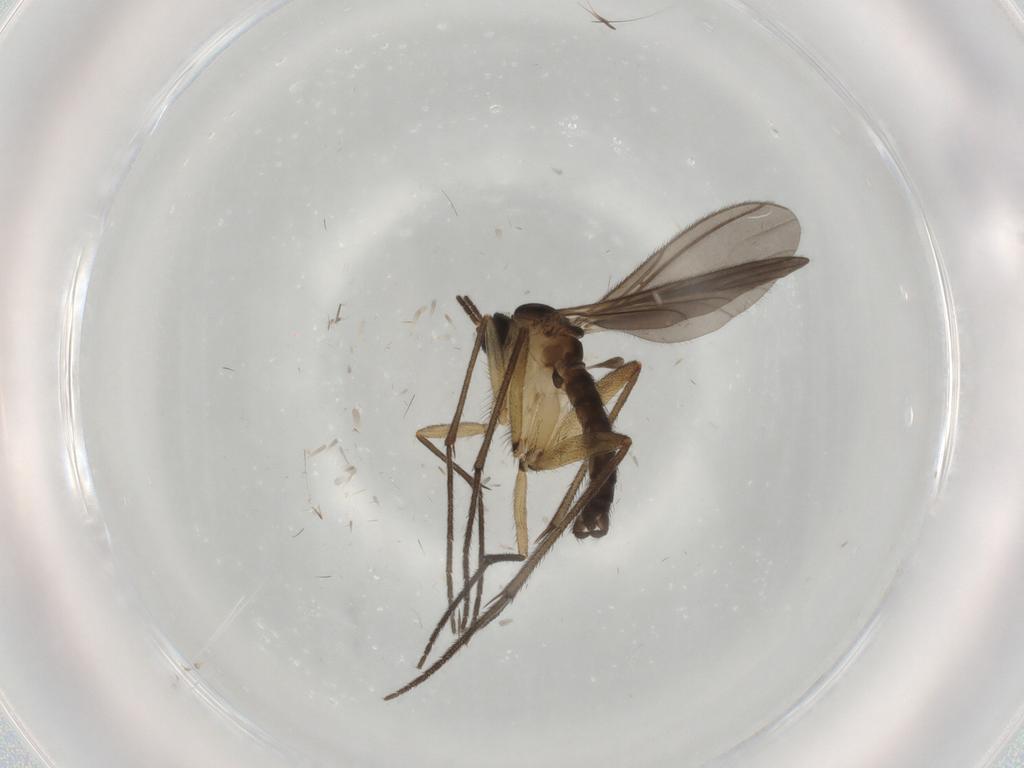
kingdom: Animalia
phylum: Arthropoda
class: Insecta
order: Diptera
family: Sciaridae
